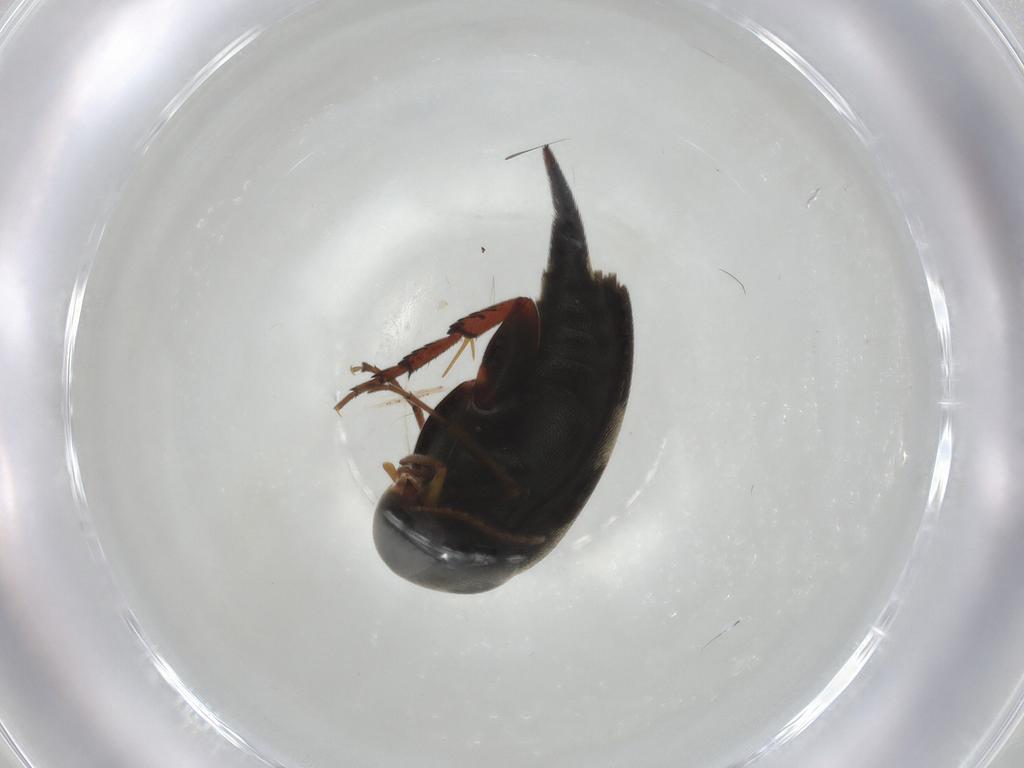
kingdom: Animalia
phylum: Arthropoda
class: Insecta
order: Coleoptera
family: Mordellidae
